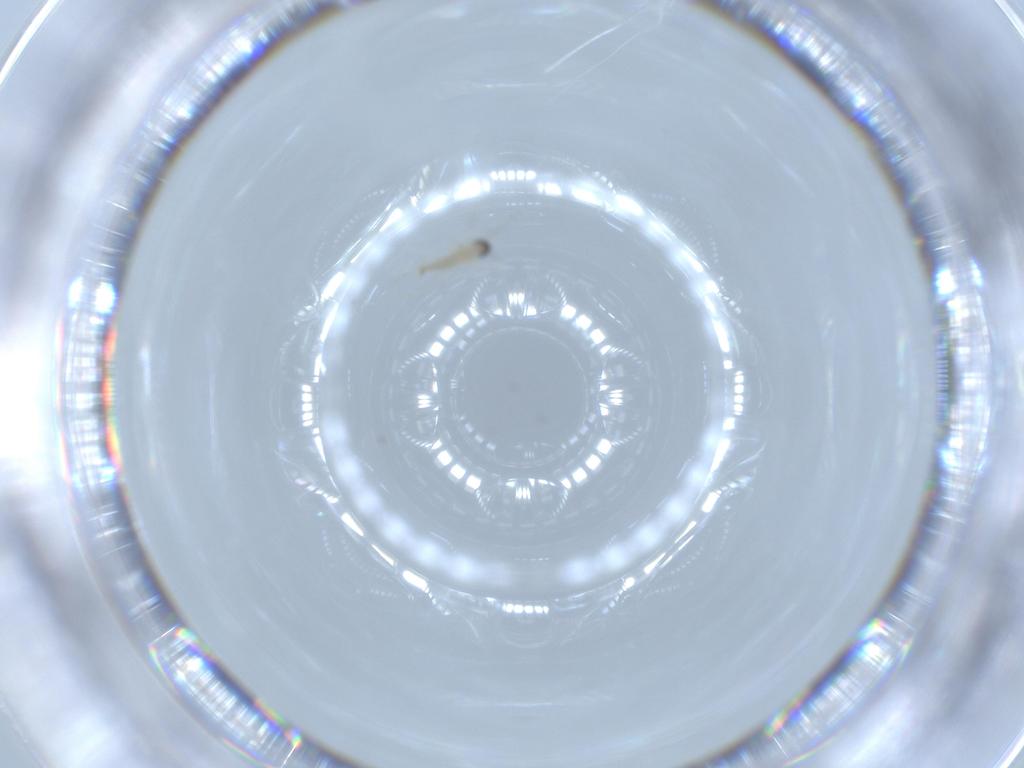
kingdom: Animalia
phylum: Arthropoda
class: Insecta
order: Diptera
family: Cecidomyiidae
